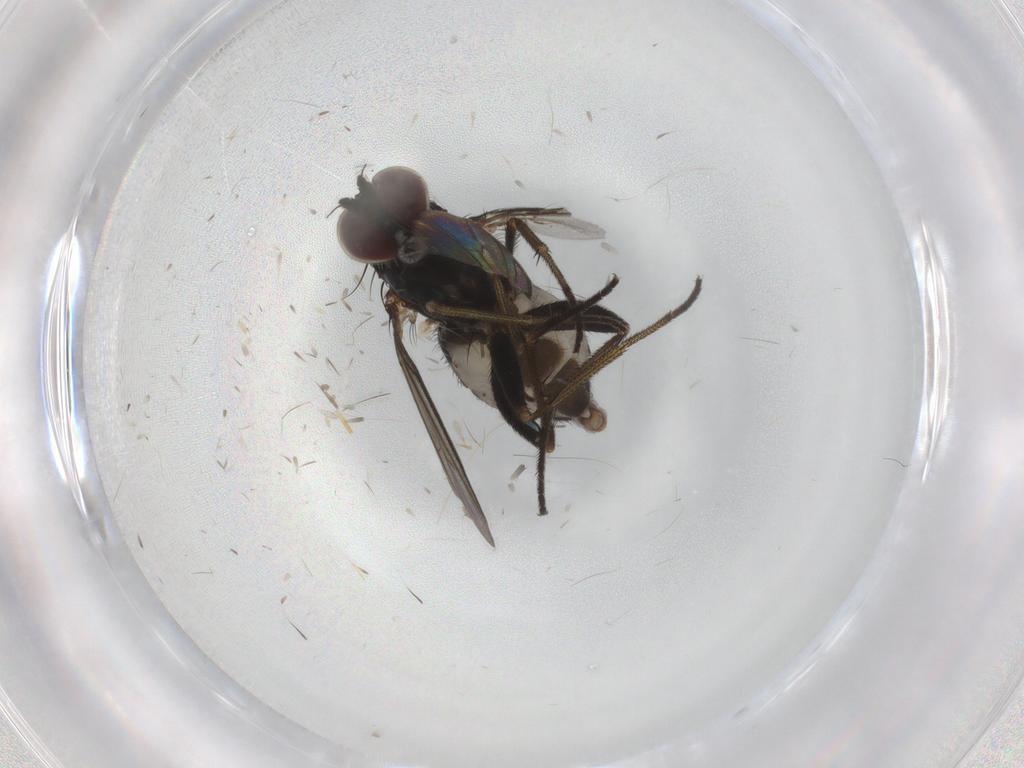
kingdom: Animalia
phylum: Arthropoda
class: Insecta
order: Diptera
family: Dolichopodidae
